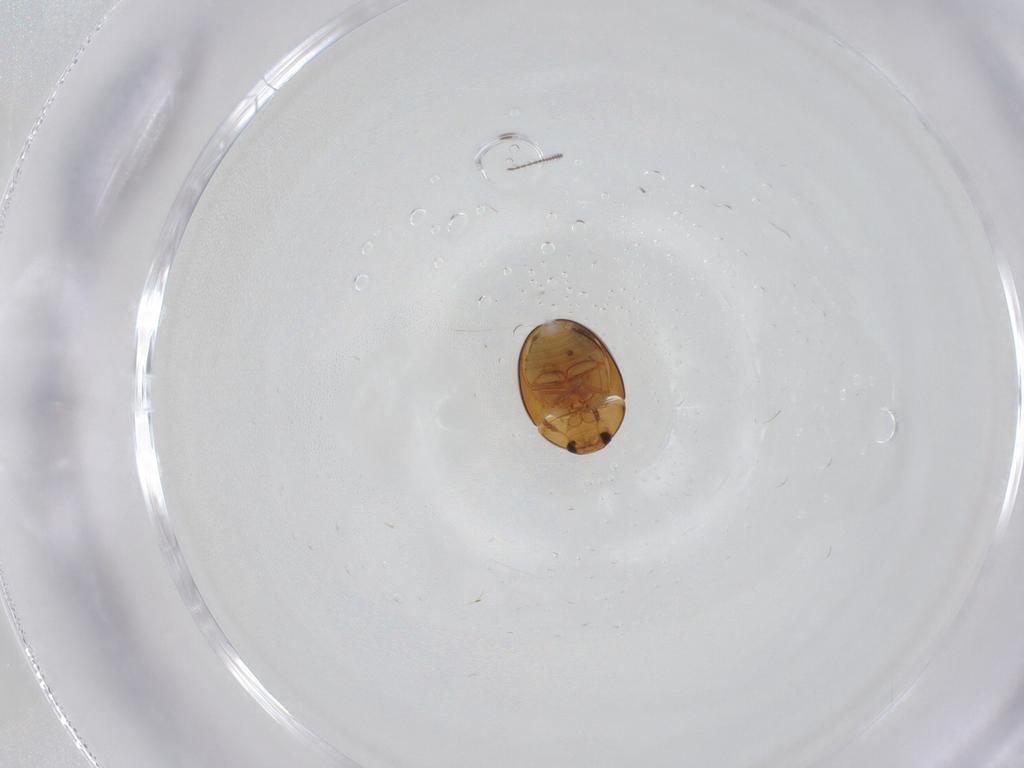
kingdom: Animalia
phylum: Arthropoda
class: Insecta
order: Coleoptera
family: Phalacridae
